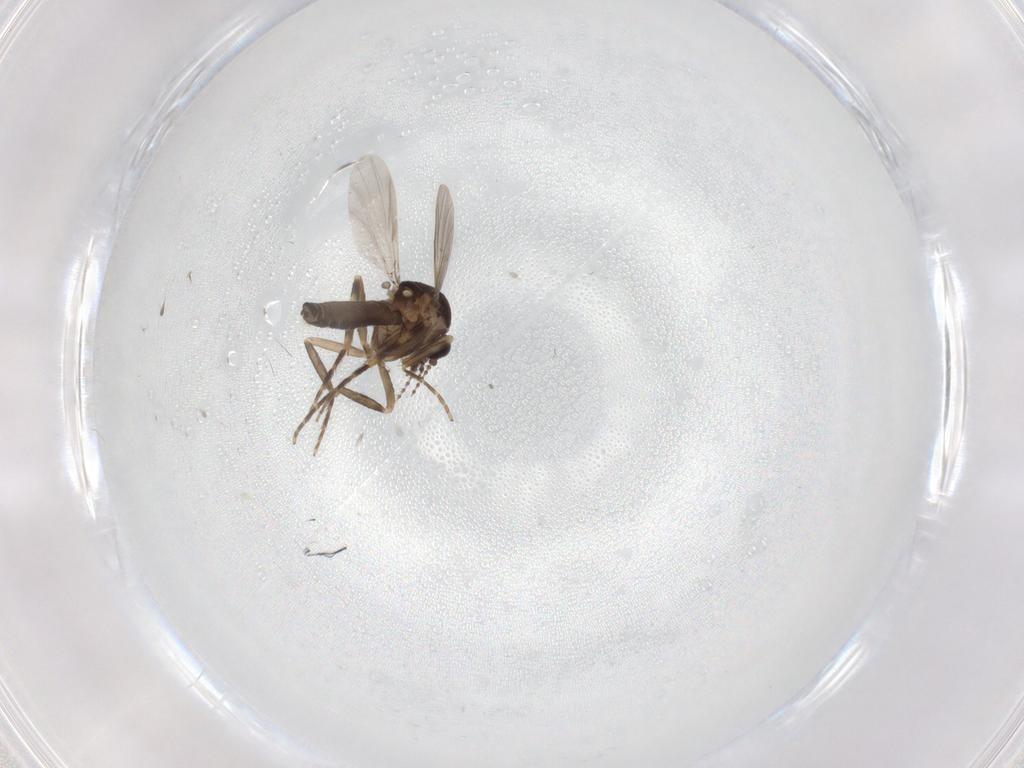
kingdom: Animalia
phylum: Arthropoda
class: Insecta
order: Diptera
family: Ceratopogonidae
